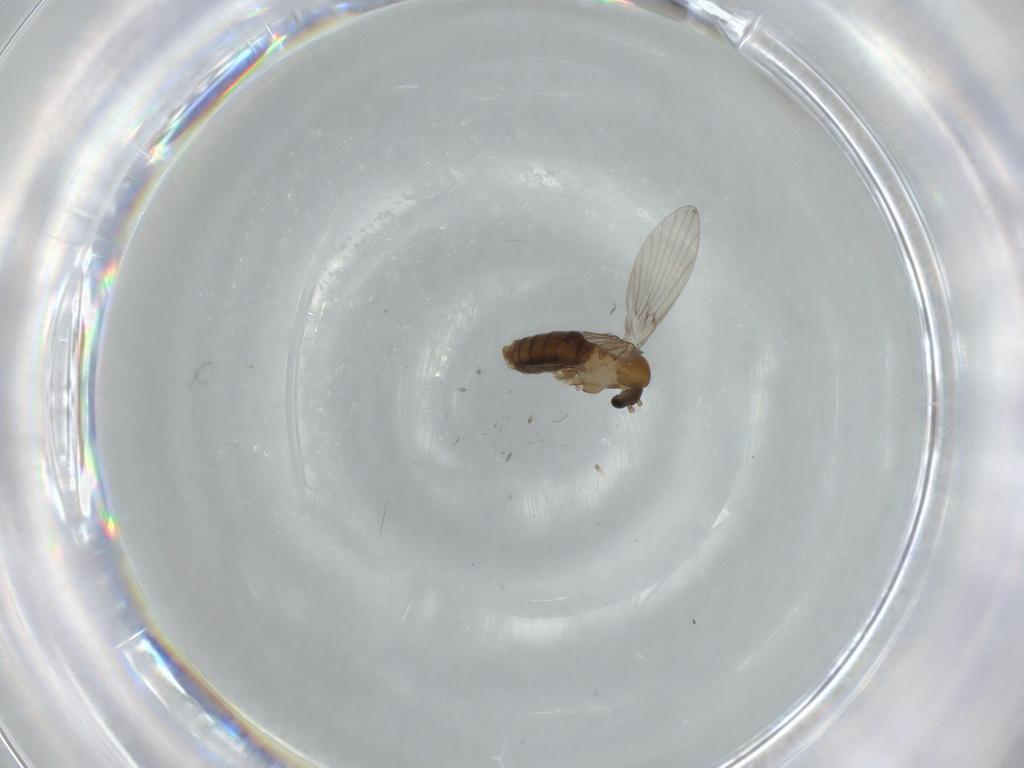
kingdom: Animalia
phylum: Arthropoda
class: Insecta
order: Diptera
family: Psychodidae
